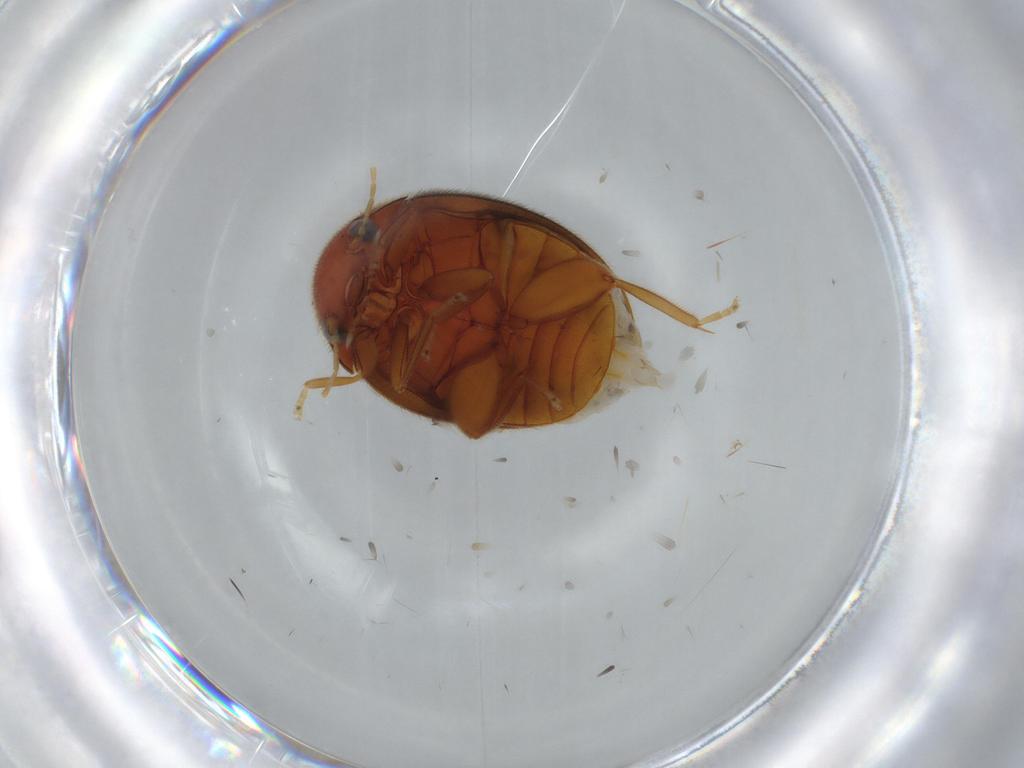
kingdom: Animalia
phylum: Arthropoda
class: Insecta
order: Coleoptera
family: Scirtidae
